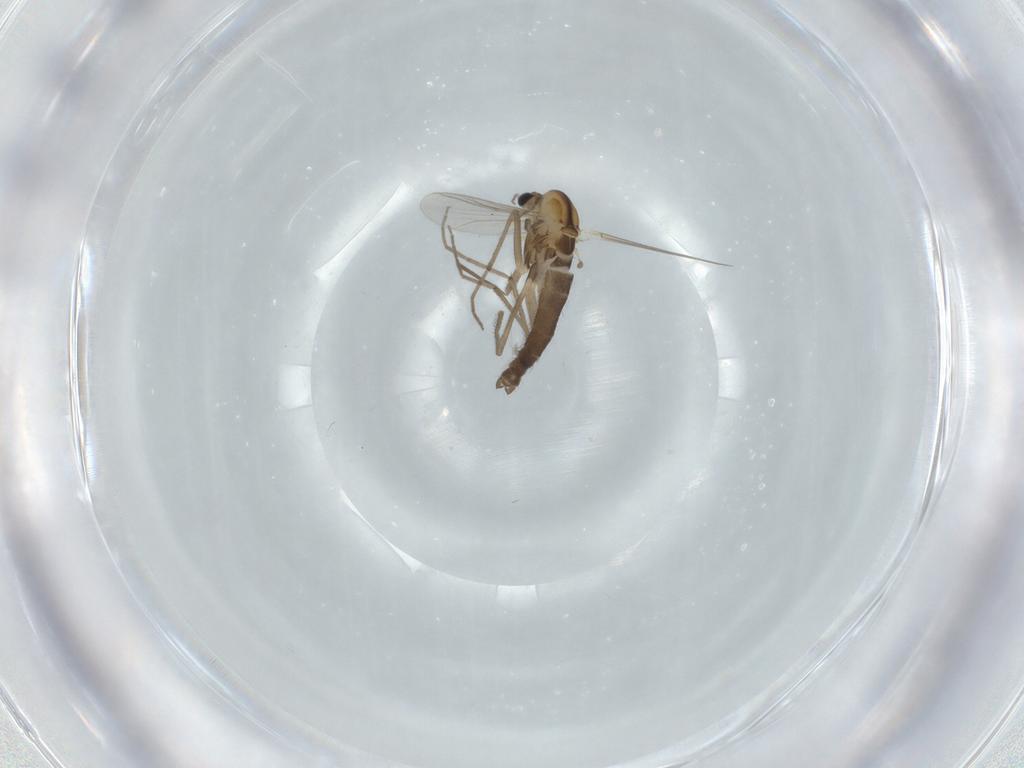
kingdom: Animalia
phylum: Arthropoda
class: Insecta
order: Diptera
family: Chironomidae
